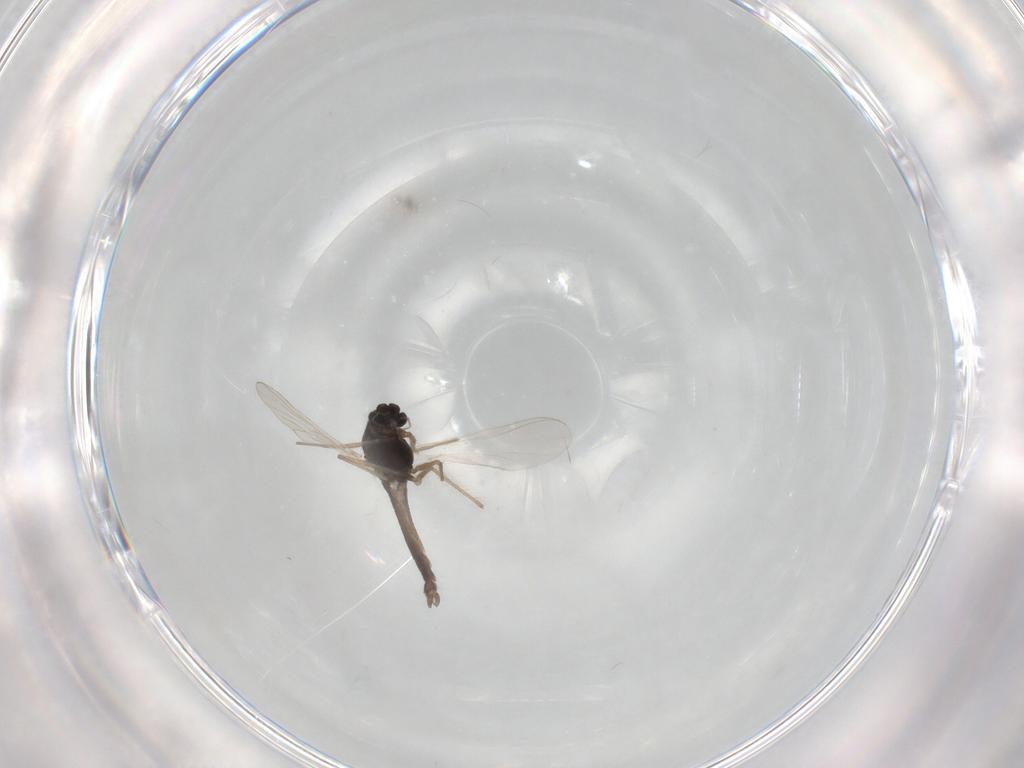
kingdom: Animalia
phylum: Arthropoda
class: Insecta
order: Diptera
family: Chironomidae
